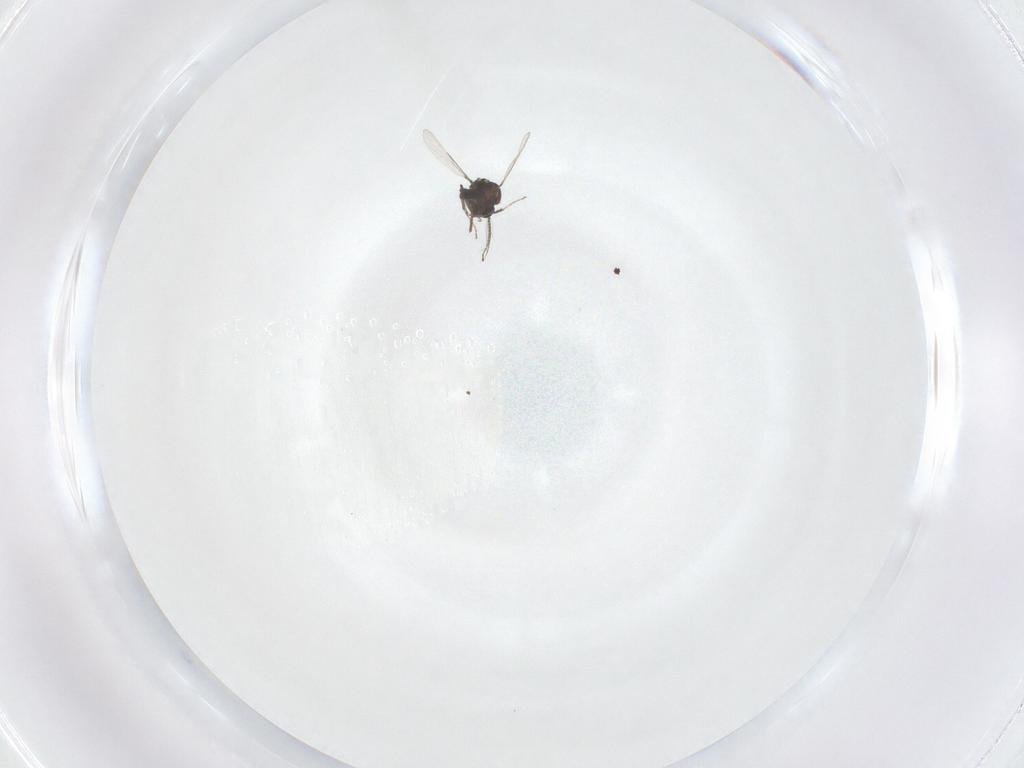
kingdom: Animalia
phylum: Arthropoda
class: Insecta
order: Diptera
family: Ceratopogonidae
